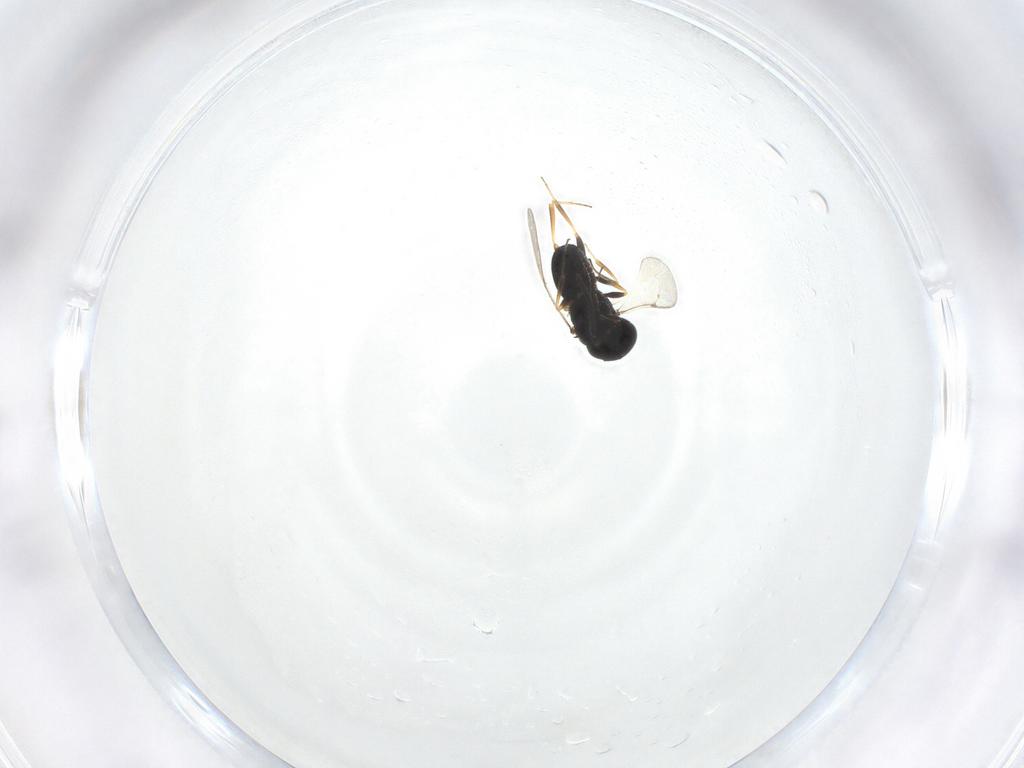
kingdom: Animalia
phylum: Arthropoda
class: Insecta
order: Hymenoptera
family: Scelionidae
